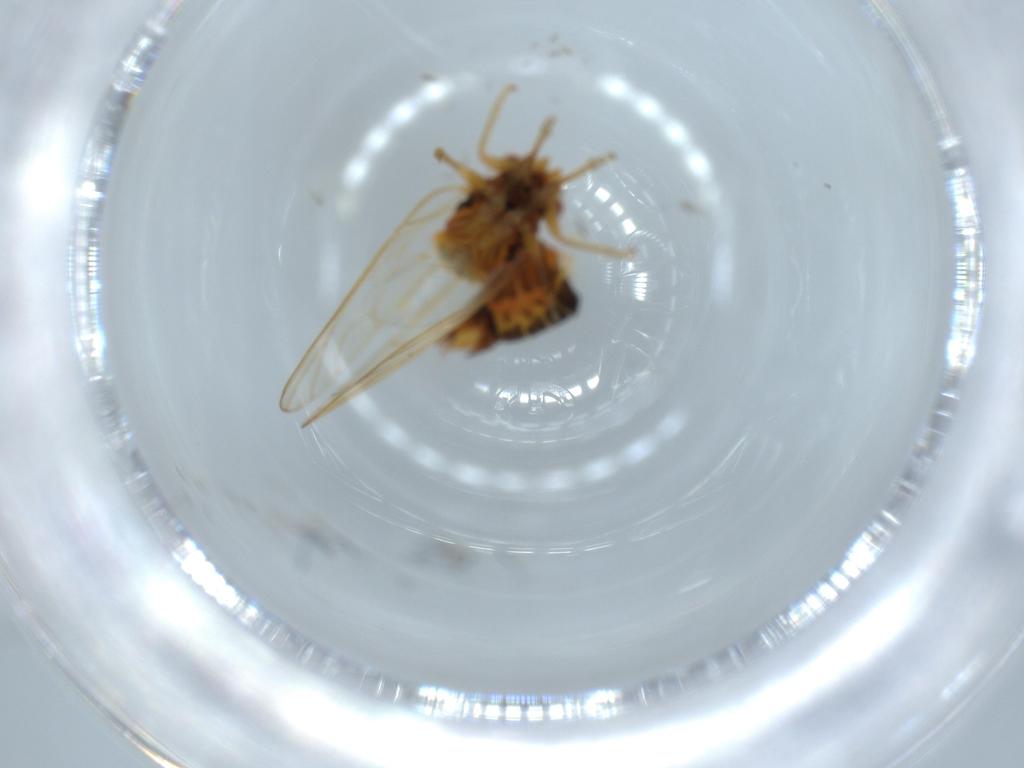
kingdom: Animalia
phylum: Arthropoda
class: Insecta
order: Hemiptera
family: Psyllidae
